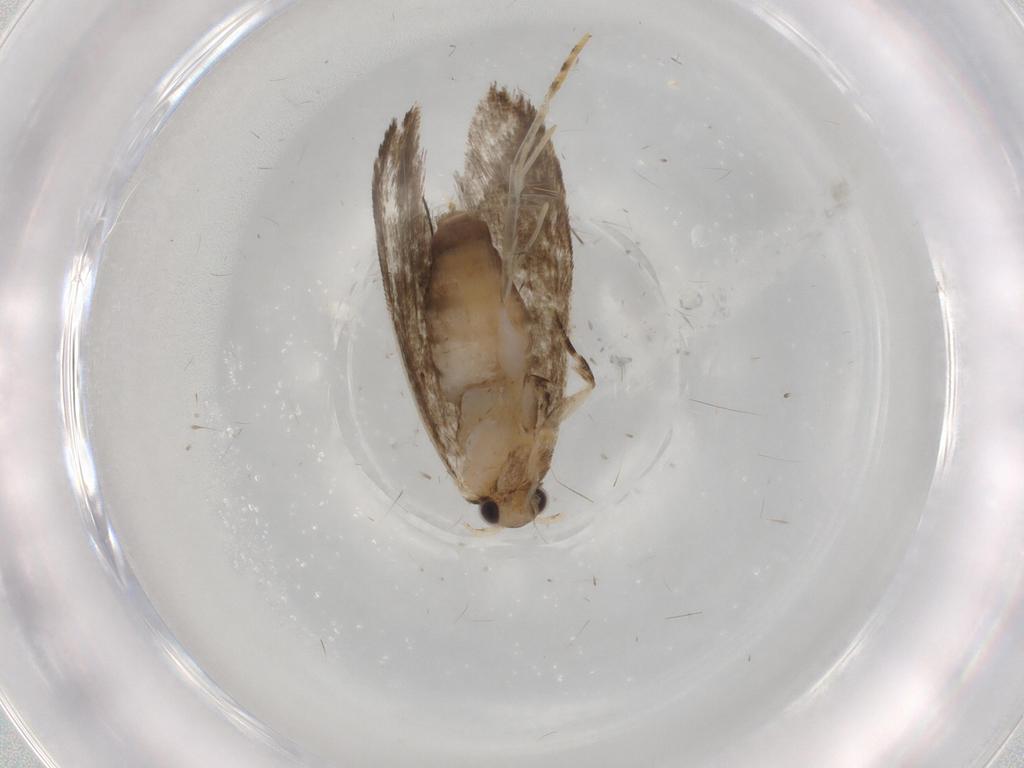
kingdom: Animalia
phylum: Arthropoda
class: Insecta
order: Lepidoptera
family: Tineidae
